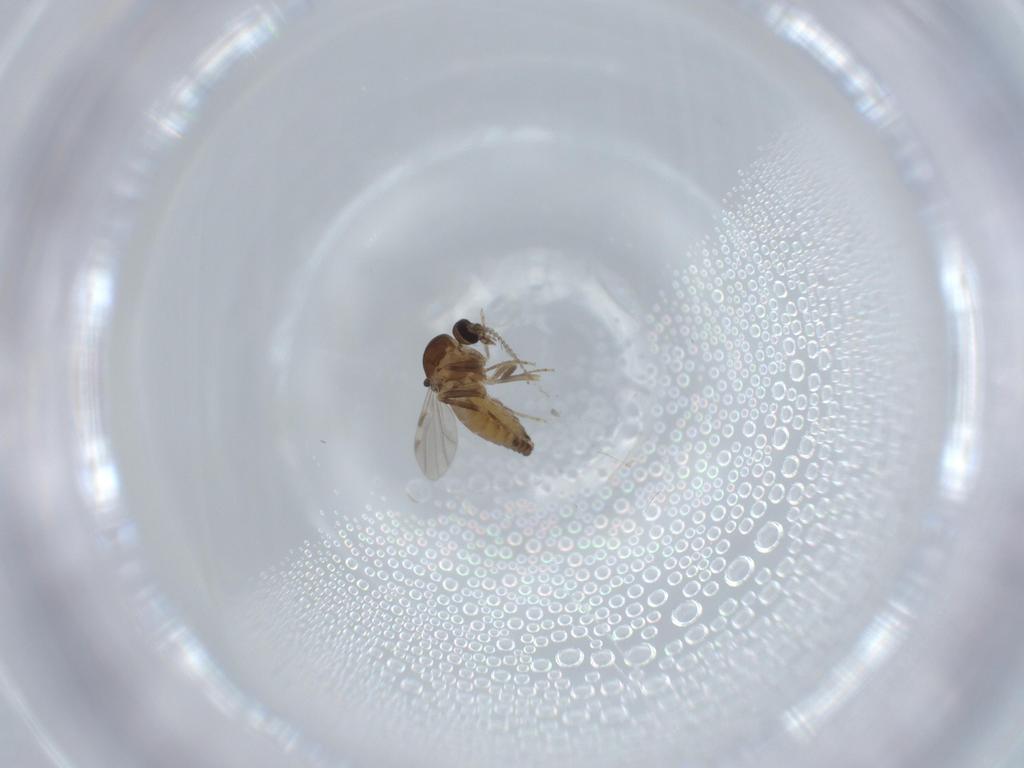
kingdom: Animalia
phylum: Arthropoda
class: Insecta
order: Diptera
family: Ceratopogonidae
